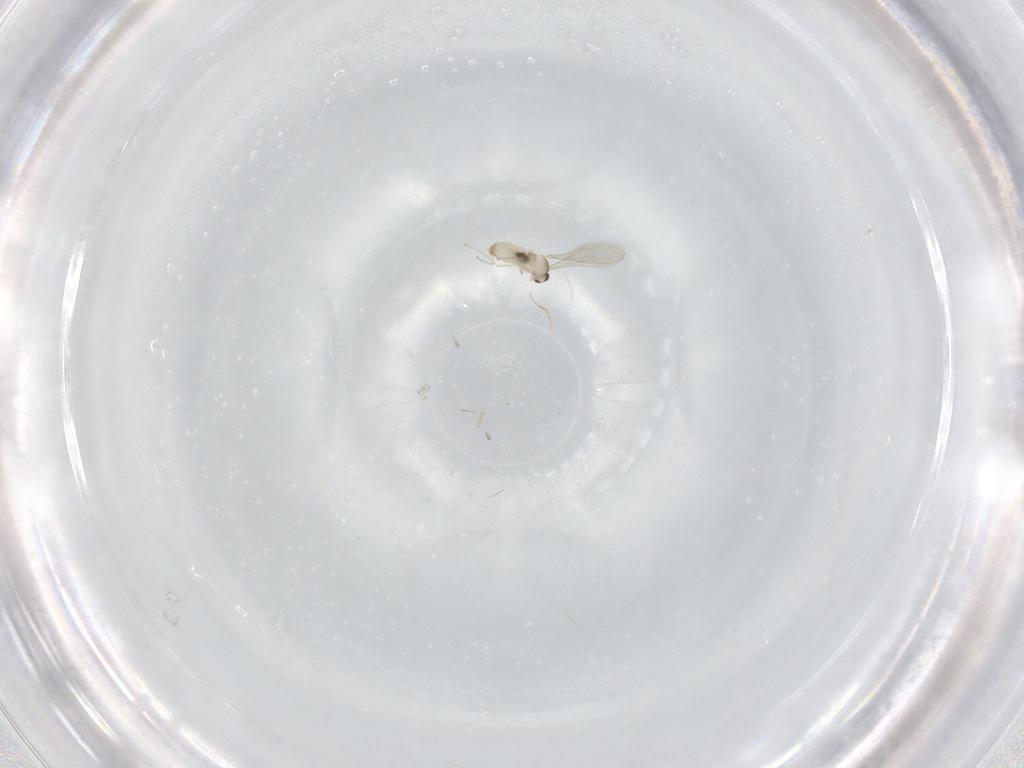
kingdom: Animalia
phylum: Arthropoda
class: Insecta
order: Diptera
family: Cecidomyiidae
